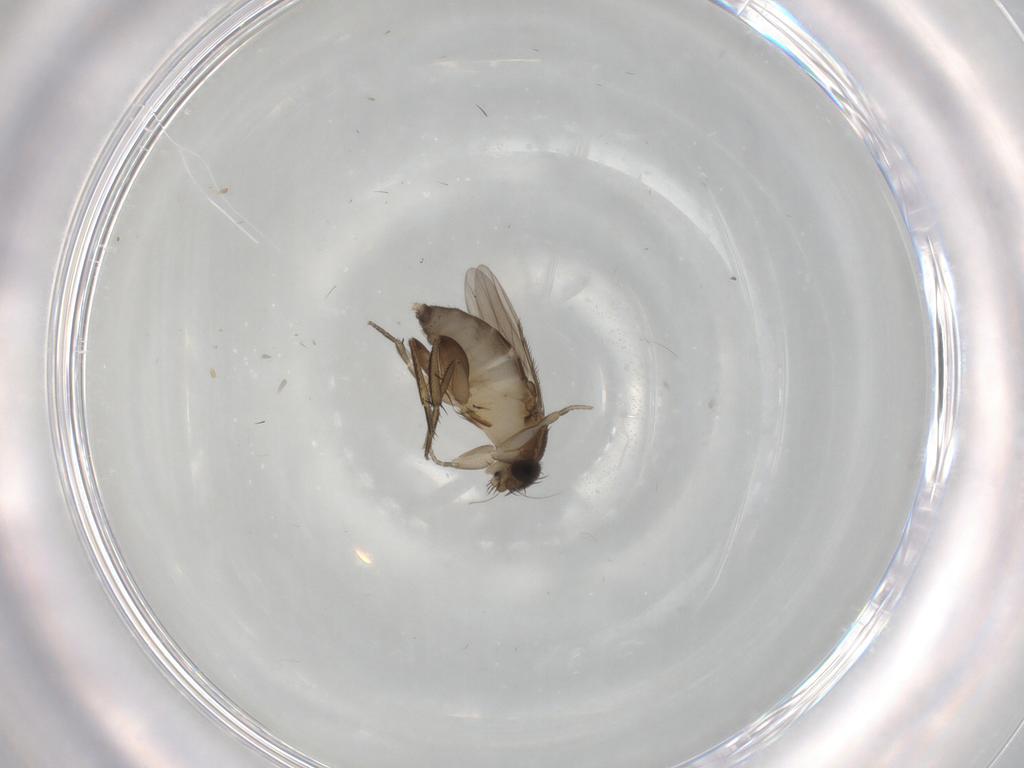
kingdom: Animalia
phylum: Arthropoda
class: Insecta
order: Diptera
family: Phoridae
